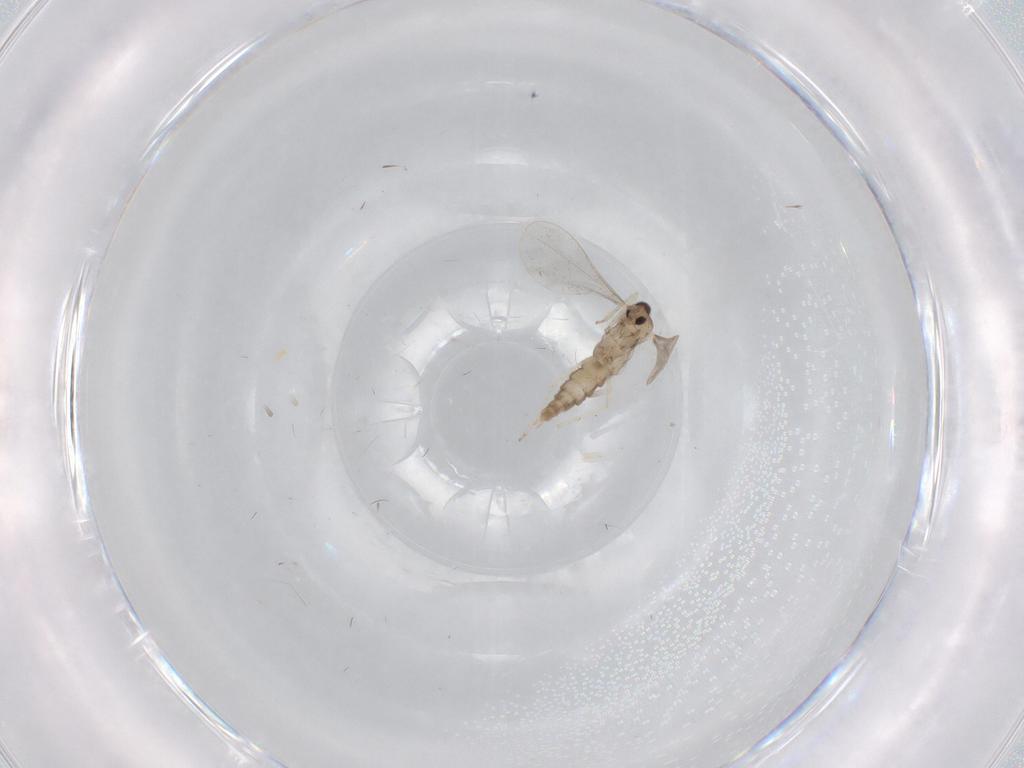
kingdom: Animalia
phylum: Arthropoda
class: Insecta
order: Diptera
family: Cecidomyiidae
